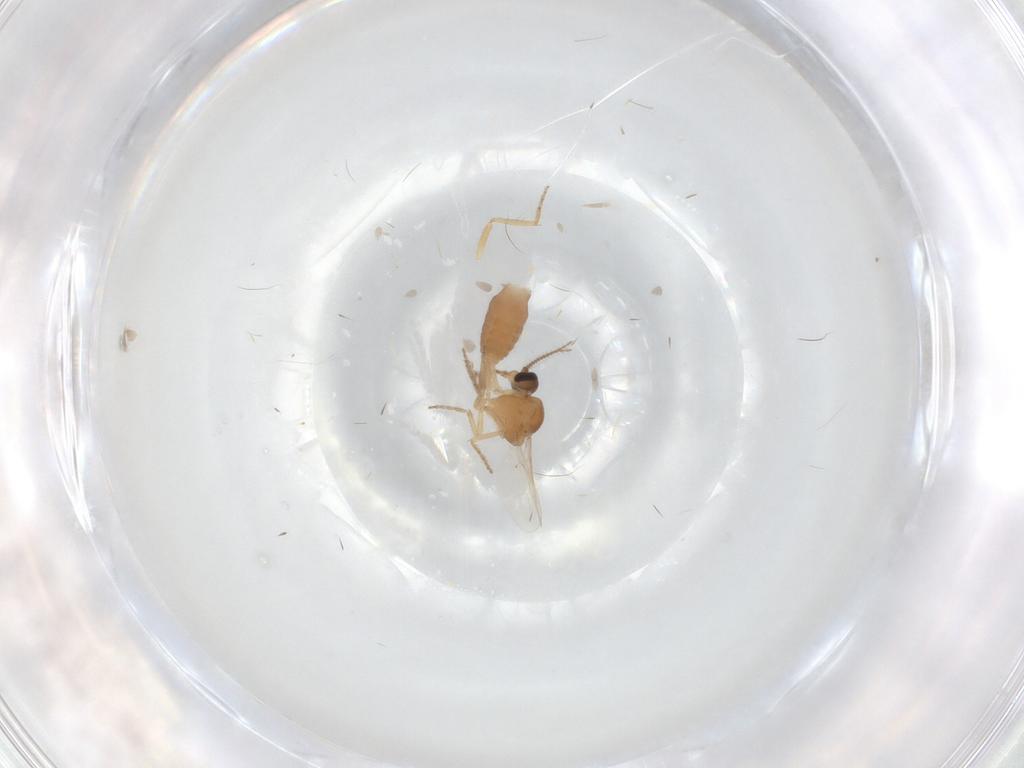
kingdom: Animalia
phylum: Arthropoda
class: Insecta
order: Diptera
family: Ceratopogonidae
